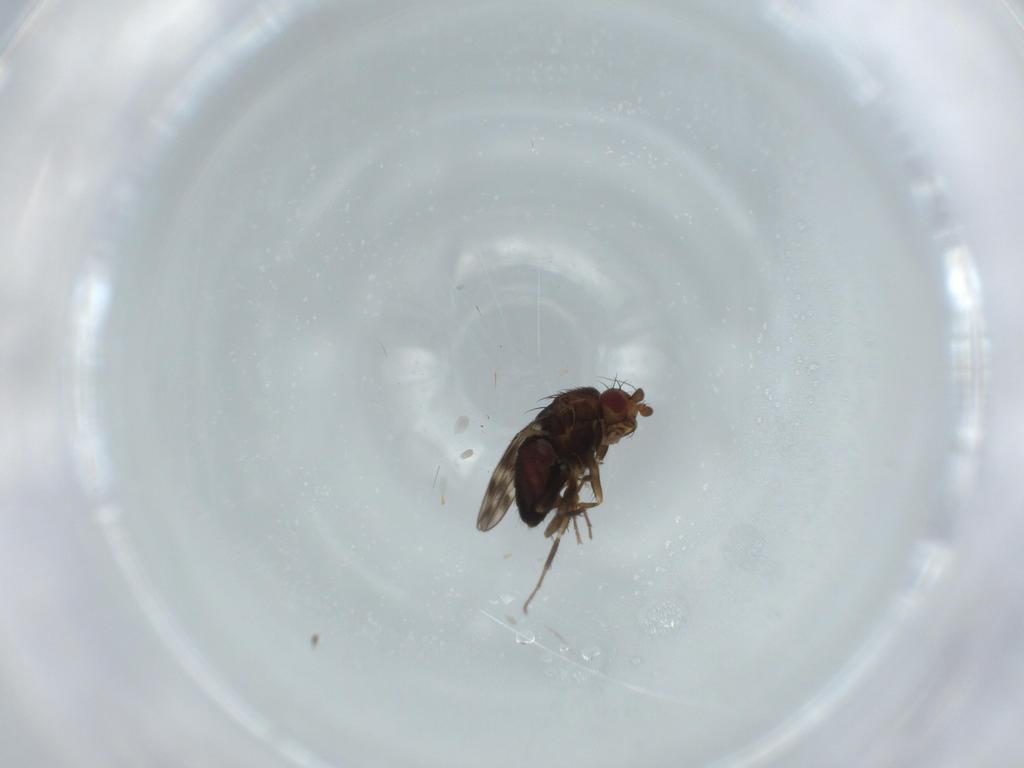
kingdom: Animalia
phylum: Arthropoda
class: Insecta
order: Diptera
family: Sphaeroceridae
